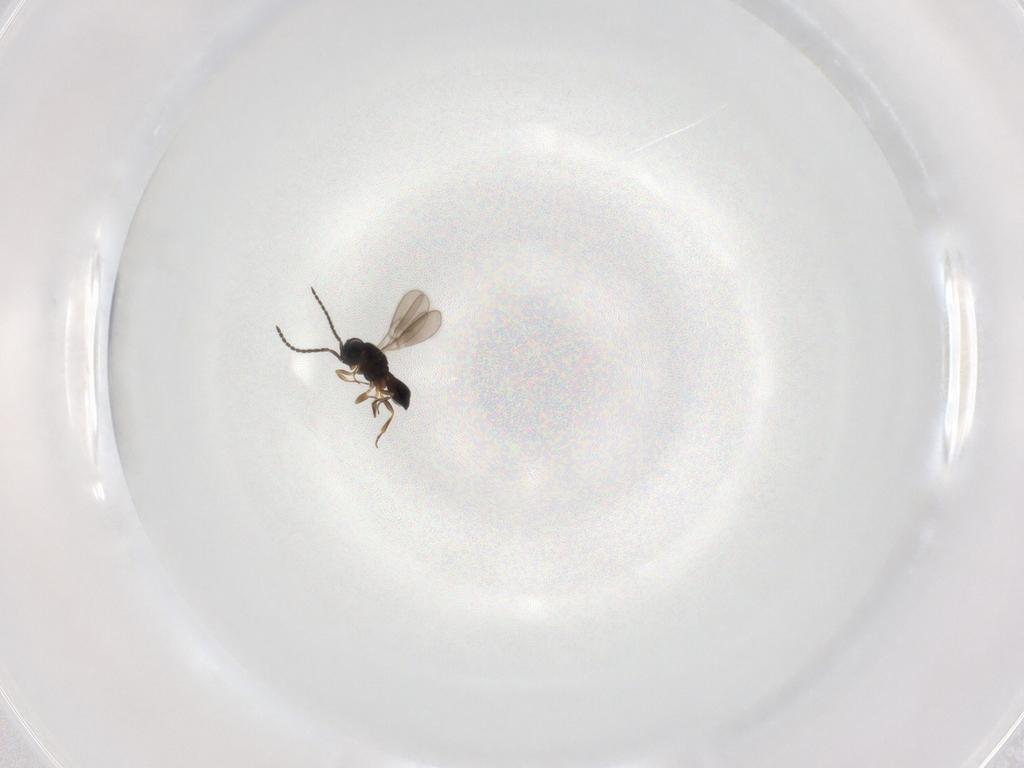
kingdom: Animalia
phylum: Arthropoda
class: Insecta
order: Hymenoptera
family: Scelionidae
